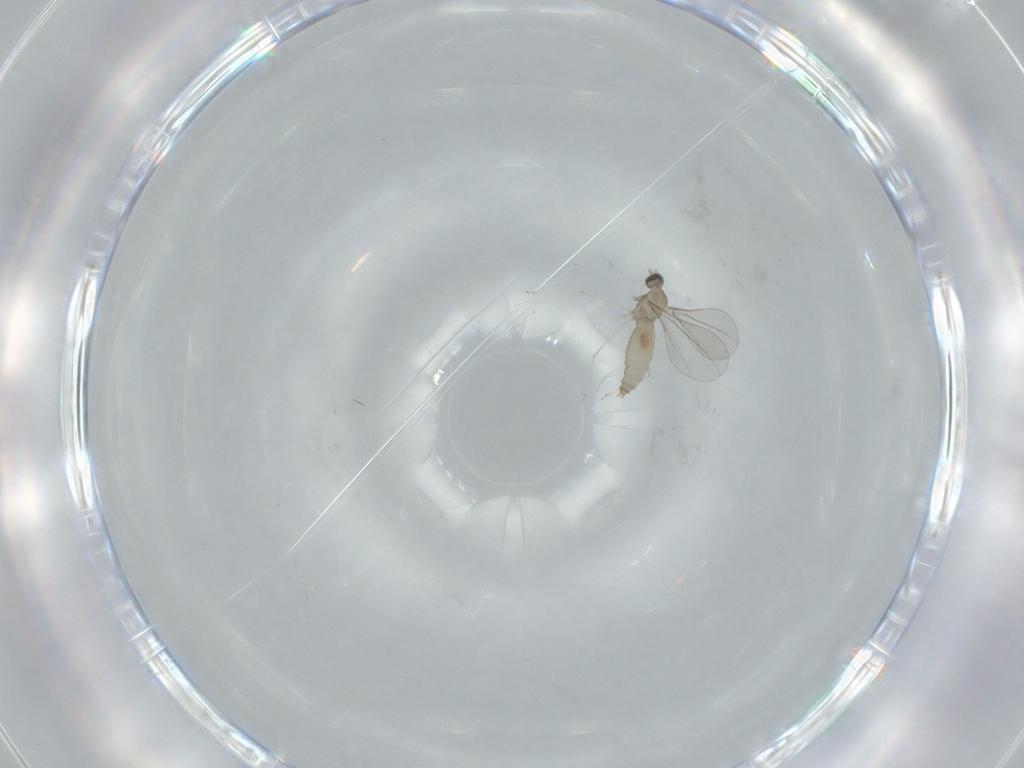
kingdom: Animalia
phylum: Arthropoda
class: Insecta
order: Diptera
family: Cecidomyiidae
